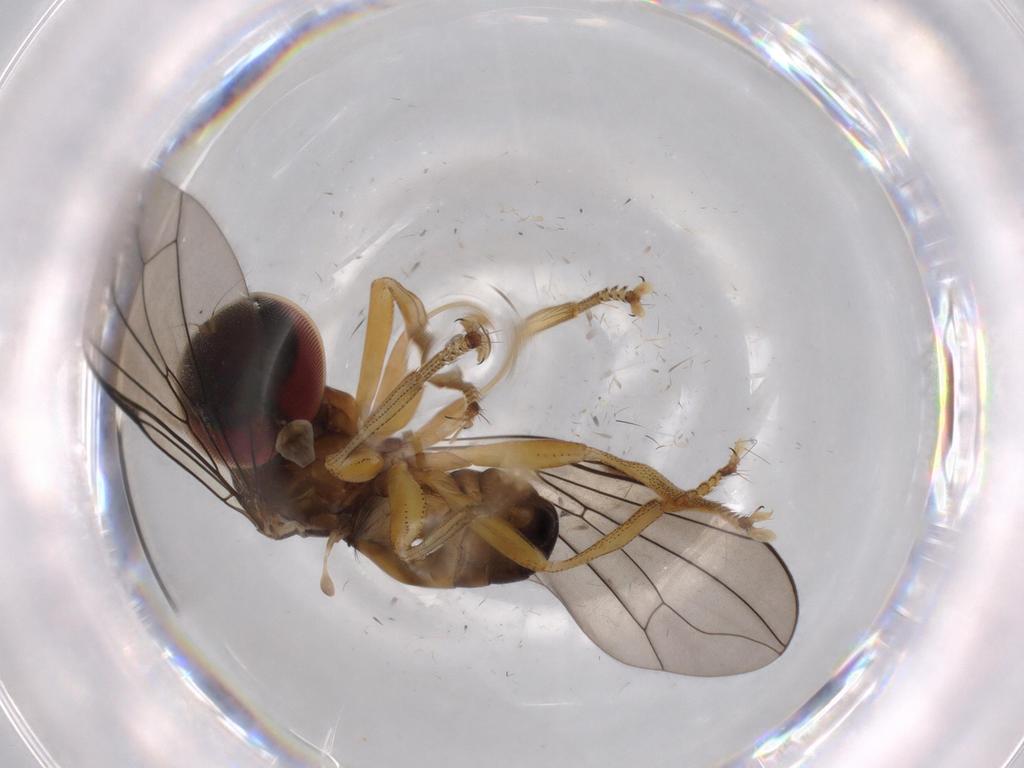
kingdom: Animalia
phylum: Arthropoda
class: Insecta
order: Diptera
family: Pipunculidae
